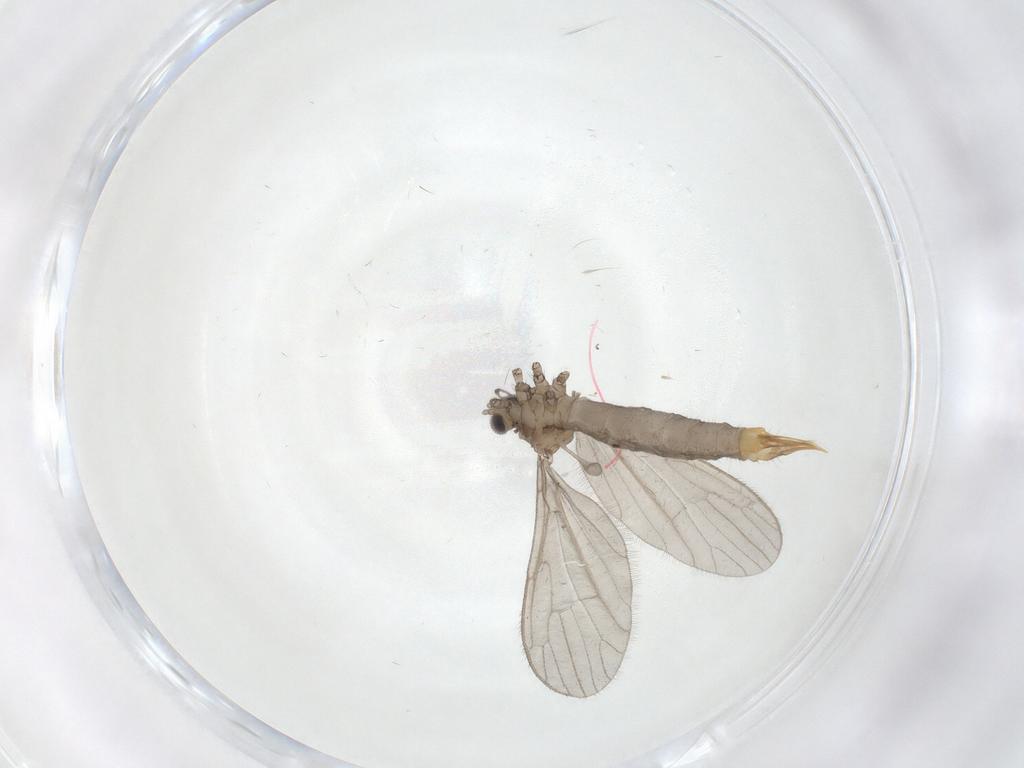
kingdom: Animalia
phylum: Arthropoda
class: Insecta
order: Diptera
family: Limoniidae
